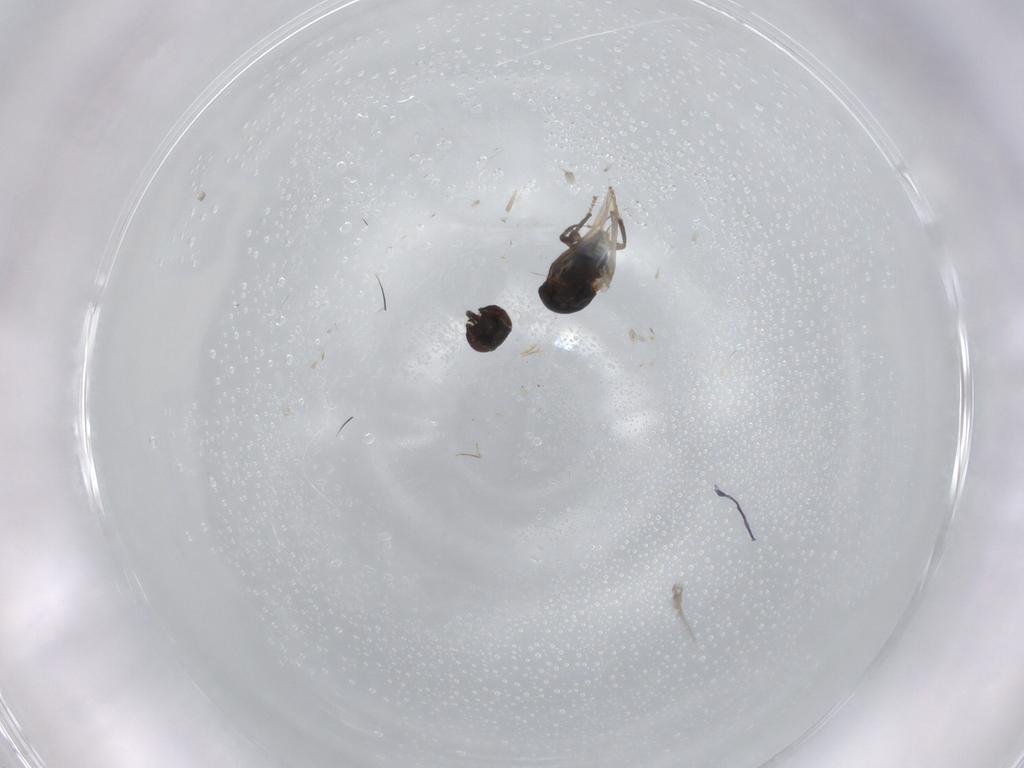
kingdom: Animalia
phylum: Arthropoda
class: Insecta
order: Diptera
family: Milichiidae
